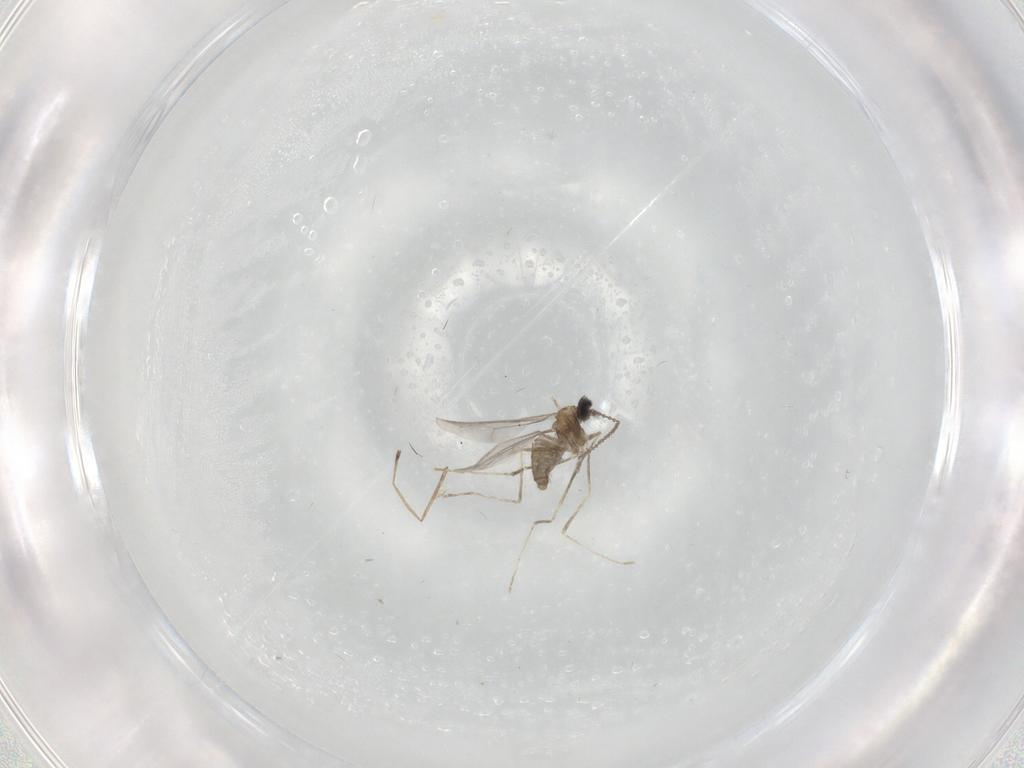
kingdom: Animalia
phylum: Arthropoda
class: Insecta
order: Diptera
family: Cecidomyiidae
